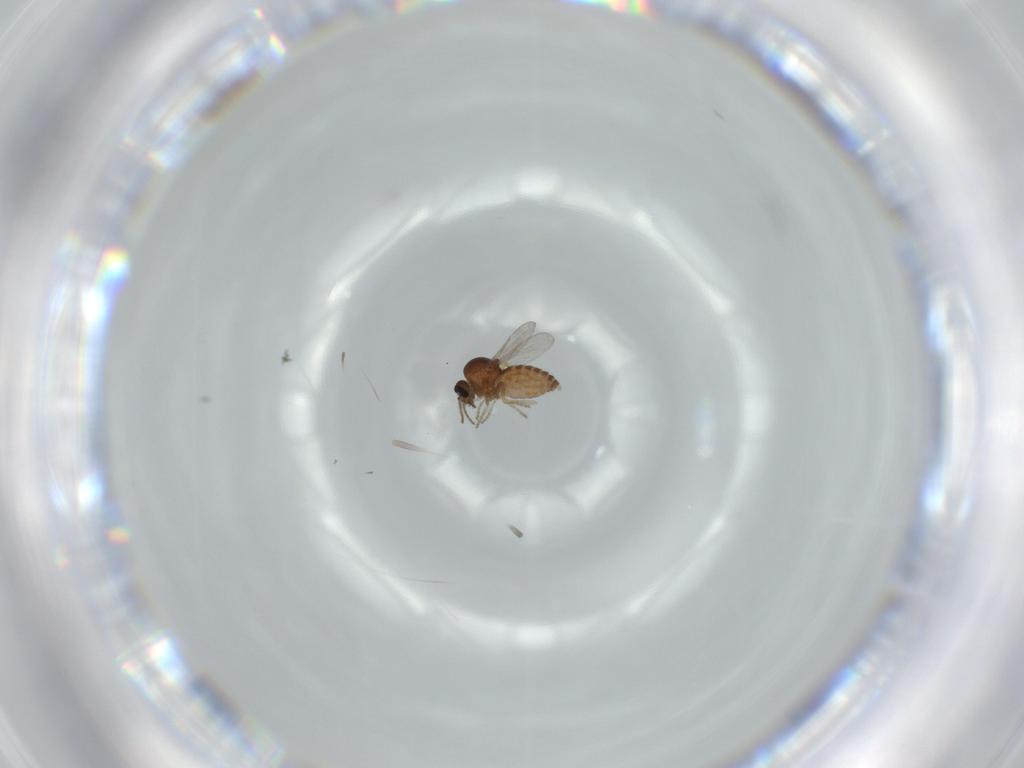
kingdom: Animalia
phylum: Arthropoda
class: Insecta
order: Diptera
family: Ceratopogonidae
